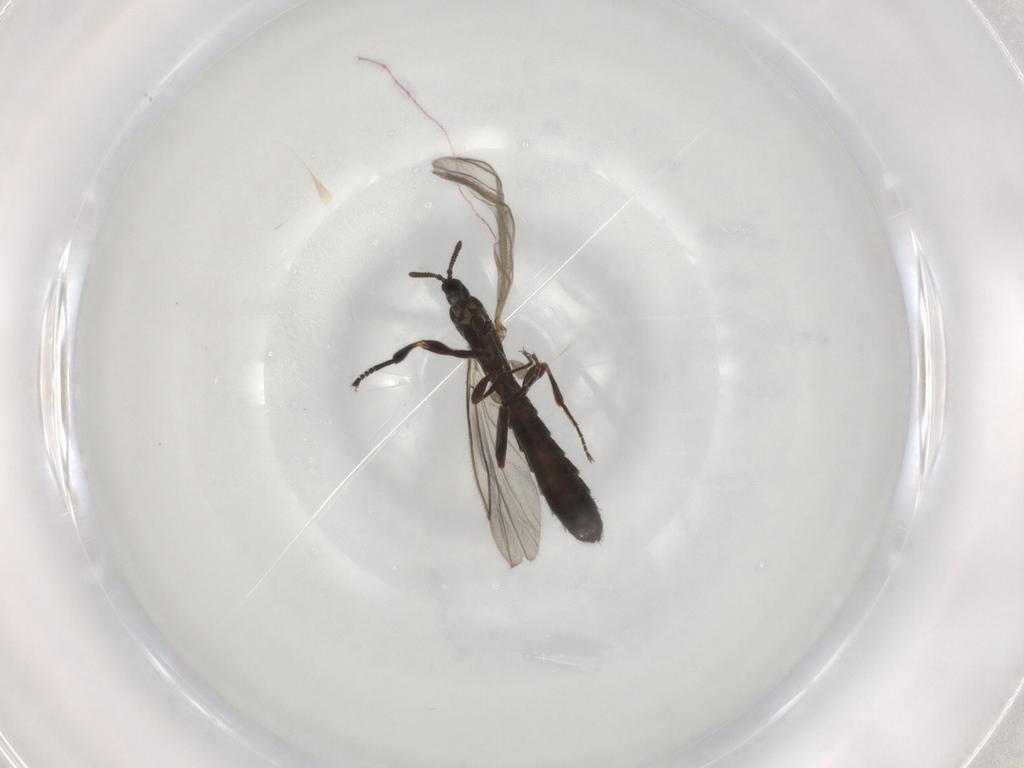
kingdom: Animalia
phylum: Arthropoda
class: Insecta
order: Diptera
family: Scatopsidae
